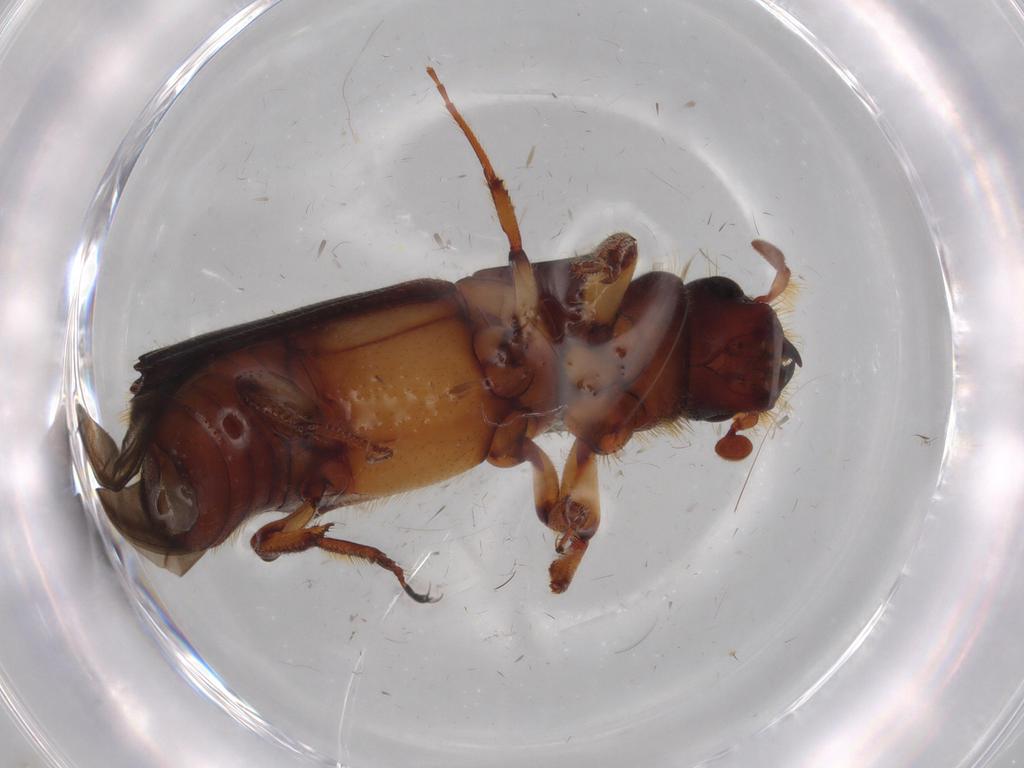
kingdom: Animalia
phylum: Arthropoda
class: Insecta
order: Coleoptera
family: Curculionidae
